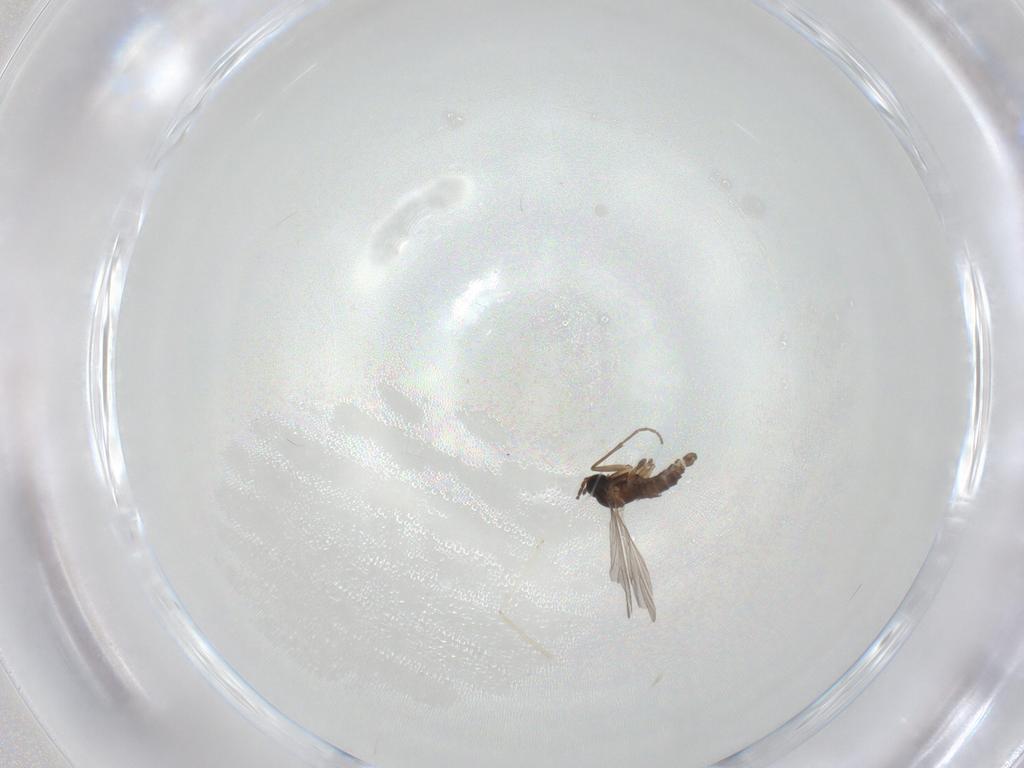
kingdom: Animalia
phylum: Arthropoda
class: Insecta
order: Diptera
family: Sciaridae
